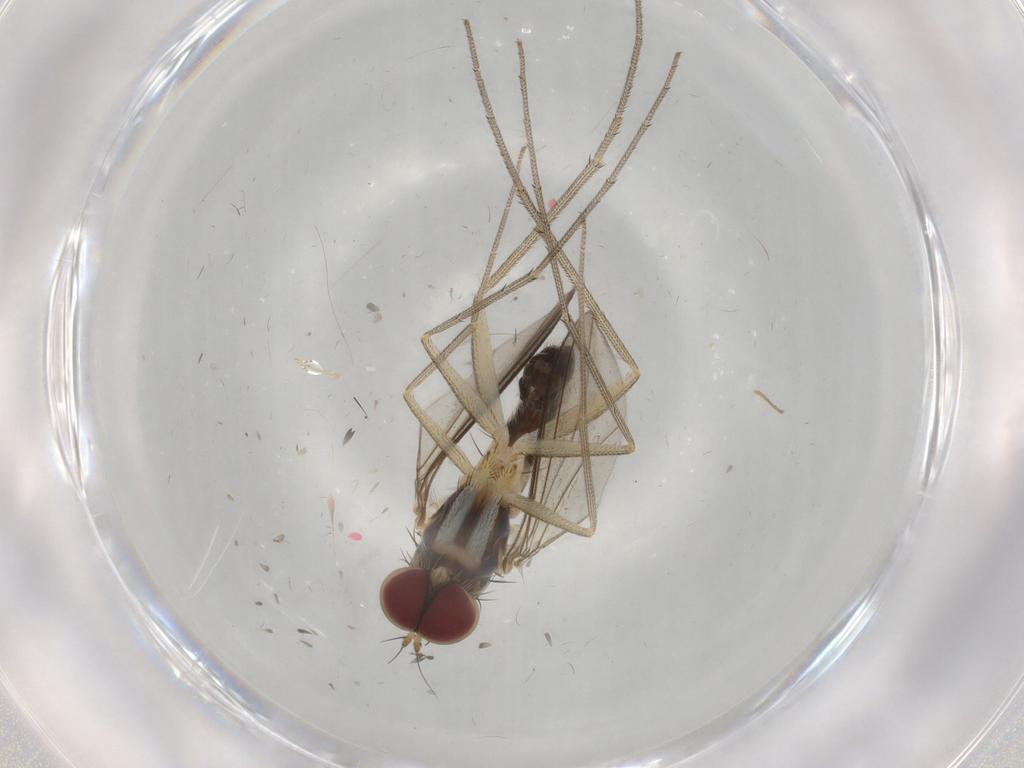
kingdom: Animalia
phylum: Arthropoda
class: Insecta
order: Diptera
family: Dolichopodidae
